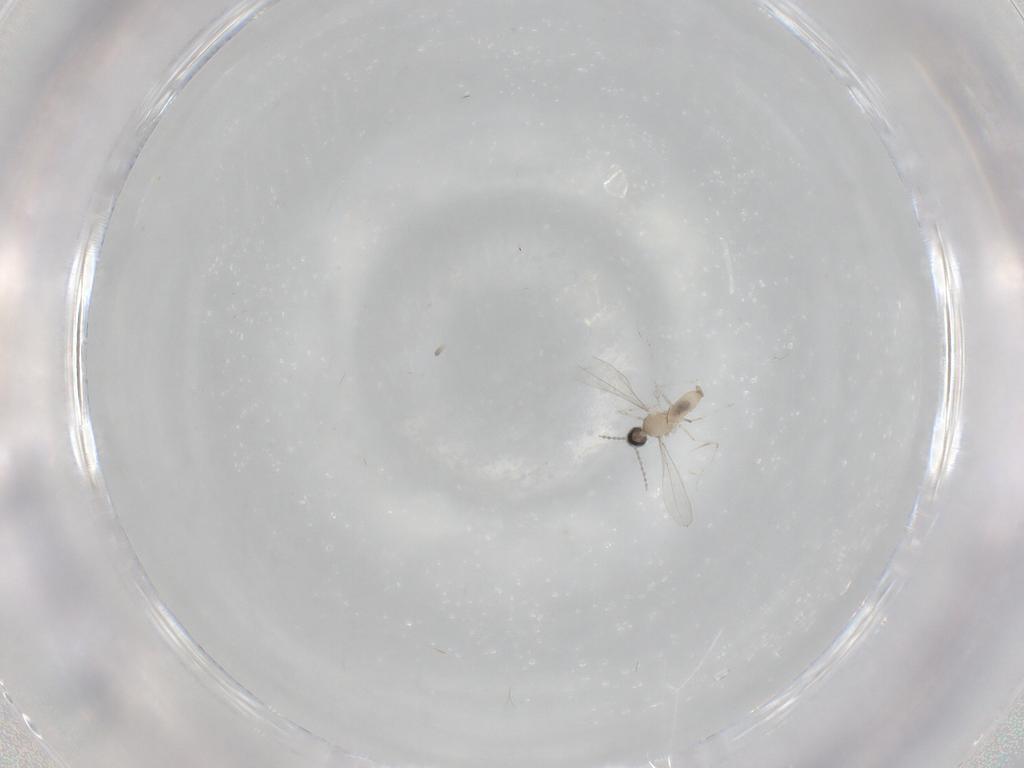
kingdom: Animalia
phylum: Arthropoda
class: Insecta
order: Diptera
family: Cecidomyiidae
